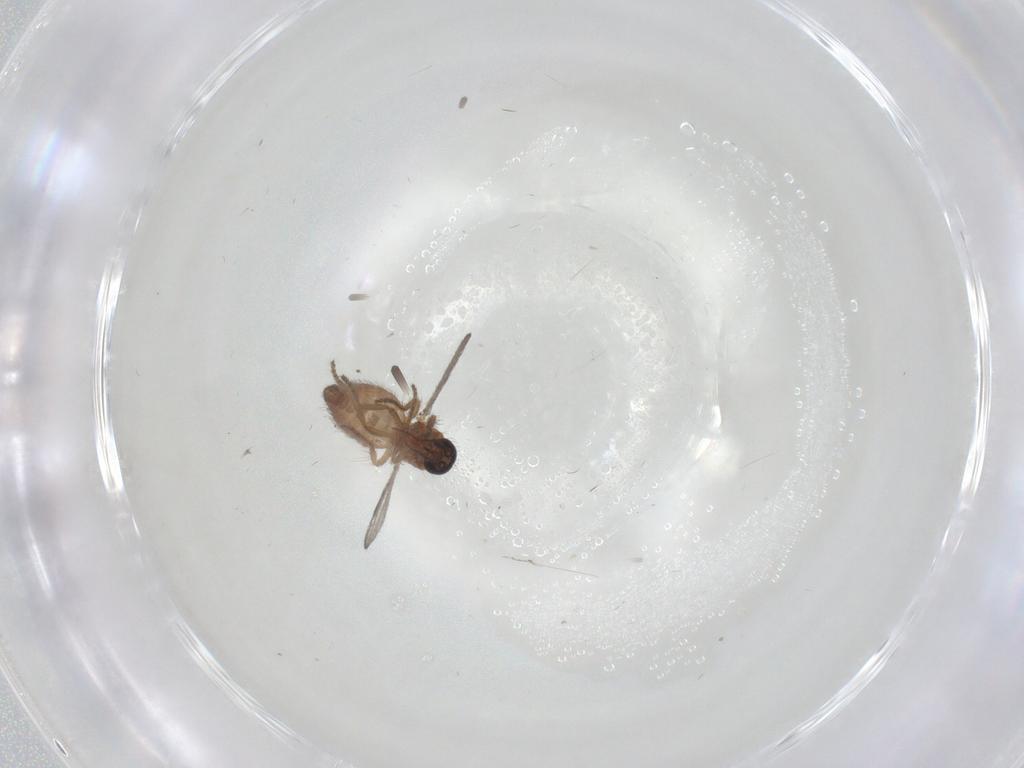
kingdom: Animalia
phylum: Arthropoda
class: Insecta
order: Diptera
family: Ceratopogonidae
